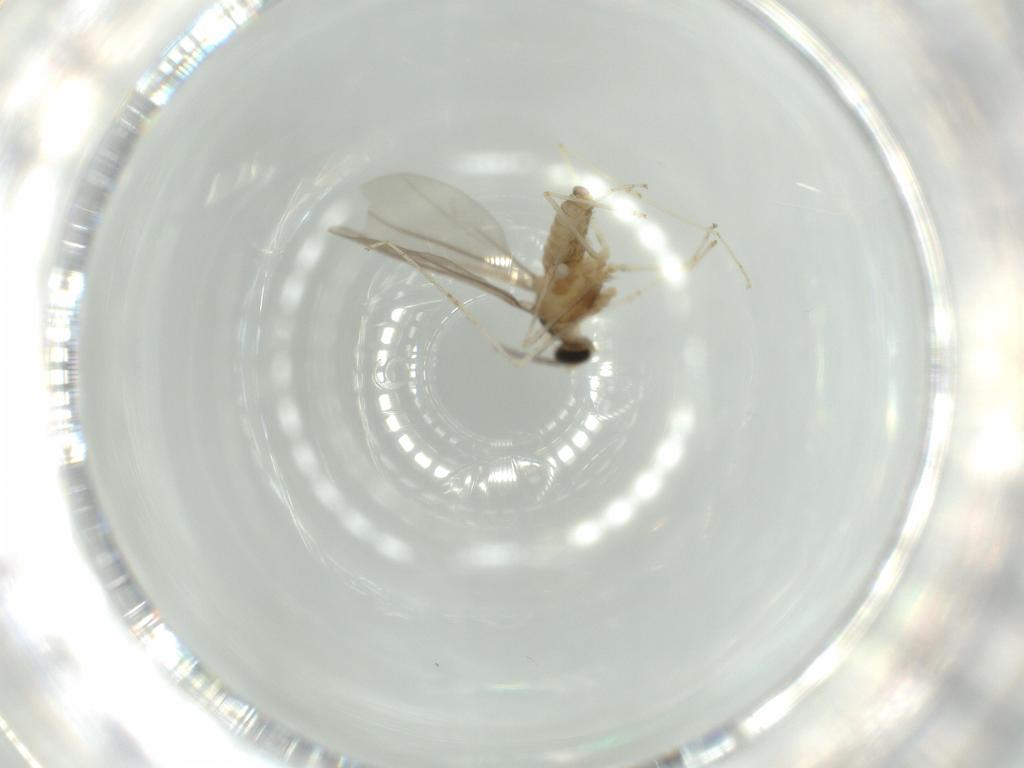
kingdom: Animalia
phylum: Arthropoda
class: Insecta
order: Diptera
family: Cecidomyiidae
